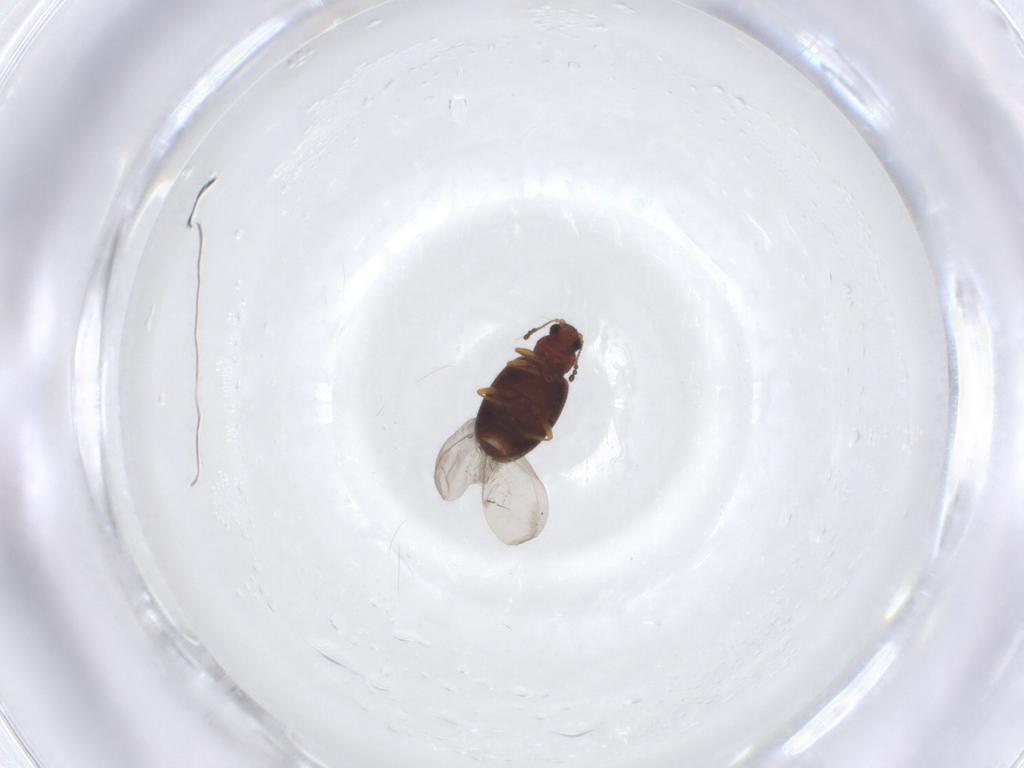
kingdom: Animalia
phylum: Arthropoda
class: Insecta
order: Coleoptera
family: Latridiidae
